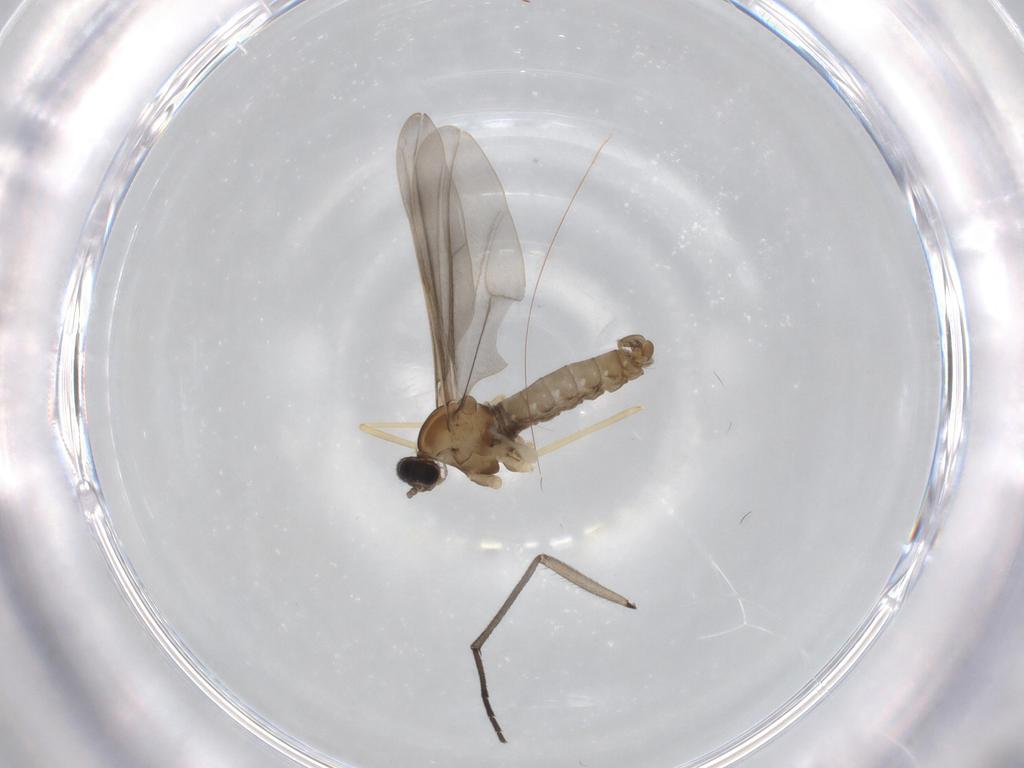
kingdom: Animalia
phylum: Arthropoda
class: Insecta
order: Diptera
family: Cecidomyiidae
